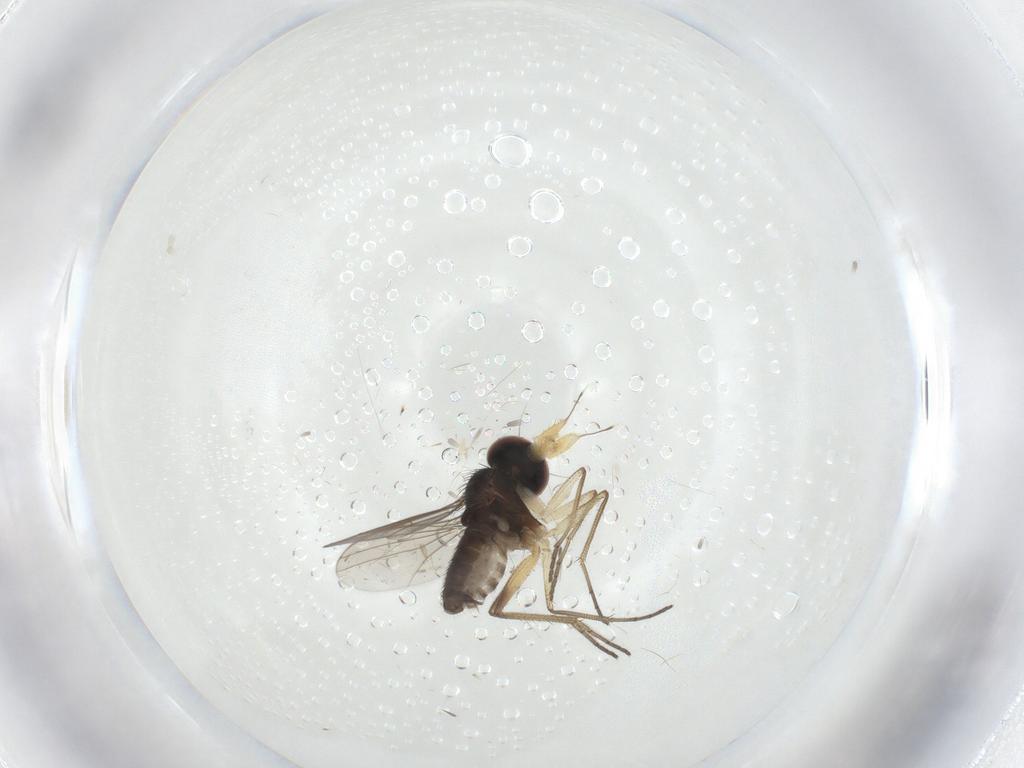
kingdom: Animalia
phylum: Arthropoda
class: Insecta
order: Diptera
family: Dolichopodidae
